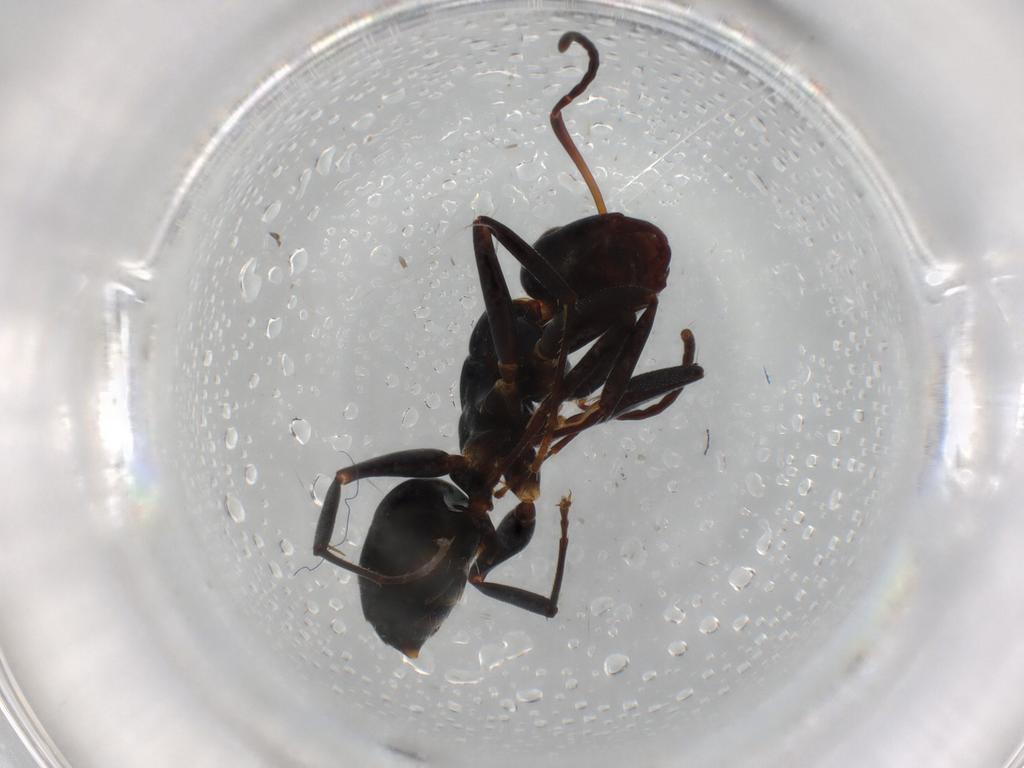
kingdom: Animalia
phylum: Arthropoda
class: Insecta
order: Hymenoptera
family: Formicidae
